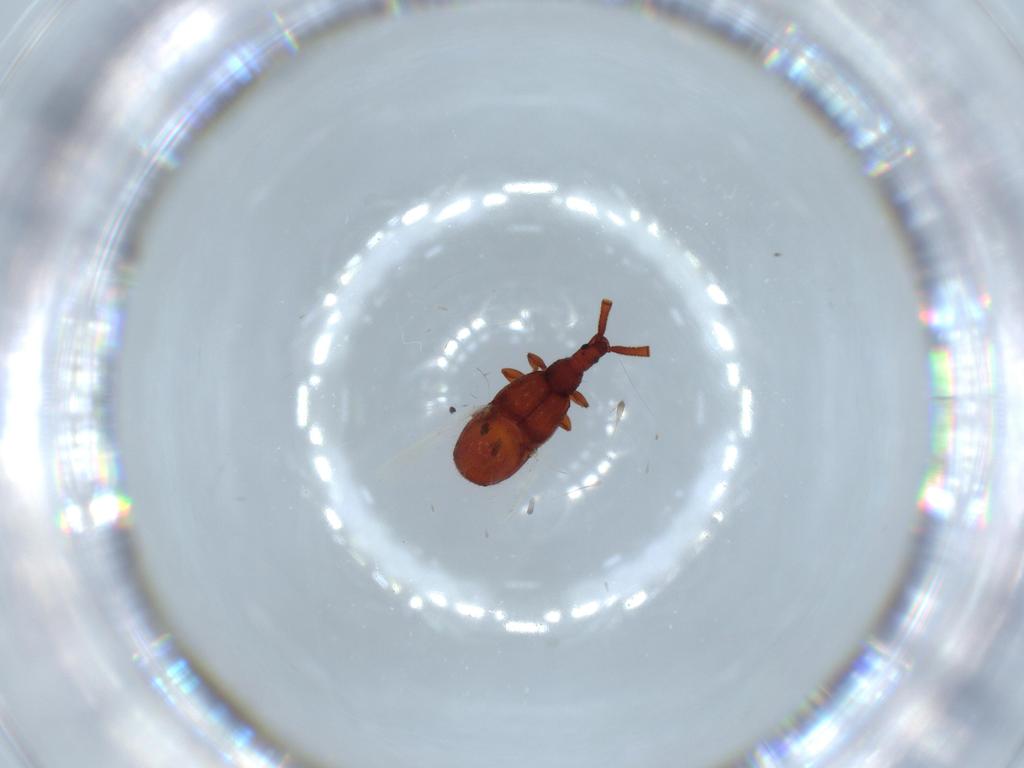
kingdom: Animalia
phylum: Arthropoda
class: Insecta
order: Coleoptera
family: Staphylinidae
